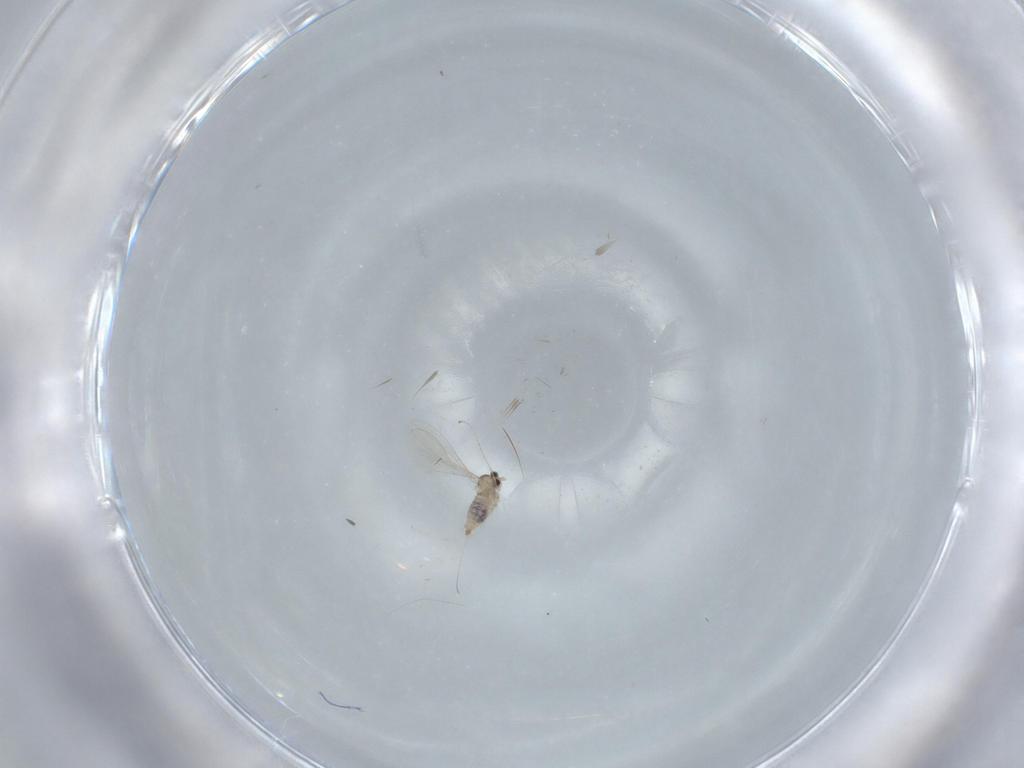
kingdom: Animalia
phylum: Arthropoda
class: Insecta
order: Diptera
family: Cecidomyiidae
